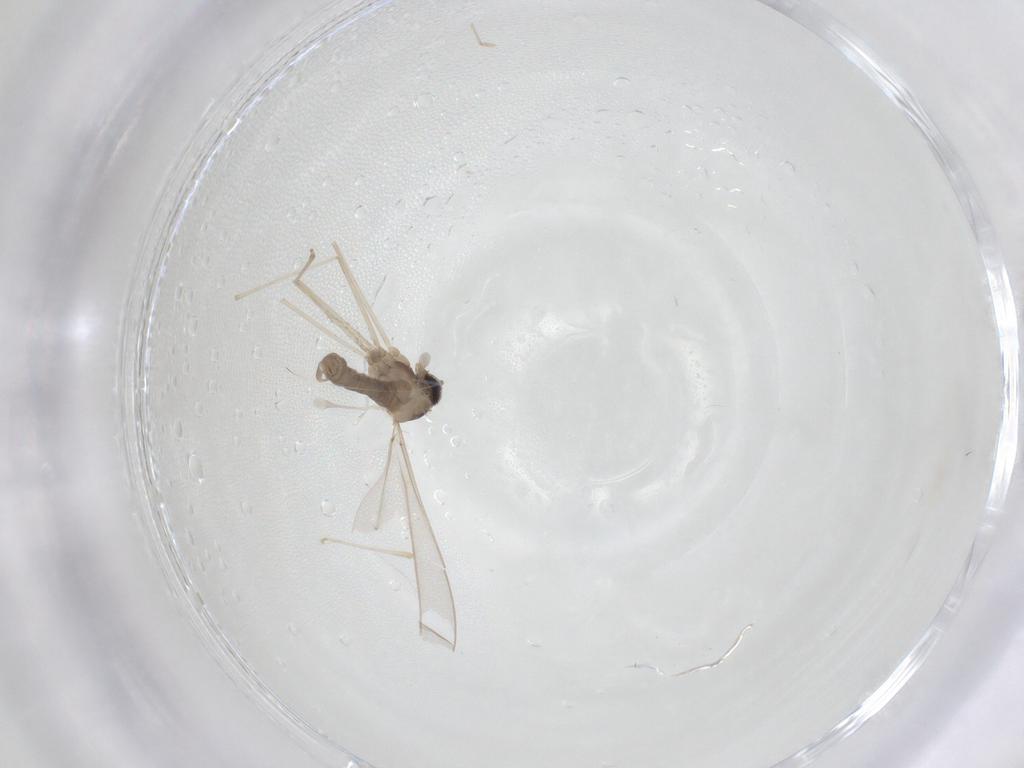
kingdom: Animalia
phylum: Arthropoda
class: Insecta
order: Diptera
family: Cecidomyiidae
